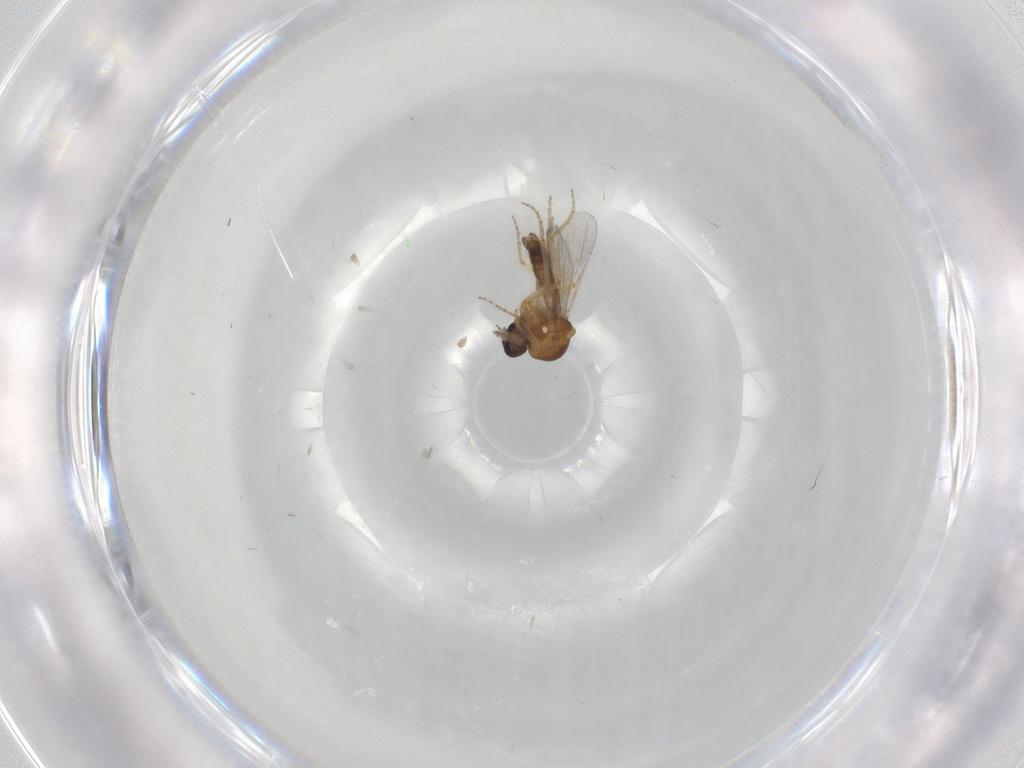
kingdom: Animalia
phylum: Arthropoda
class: Insecta
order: Diptera
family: Ceratopogonidae
